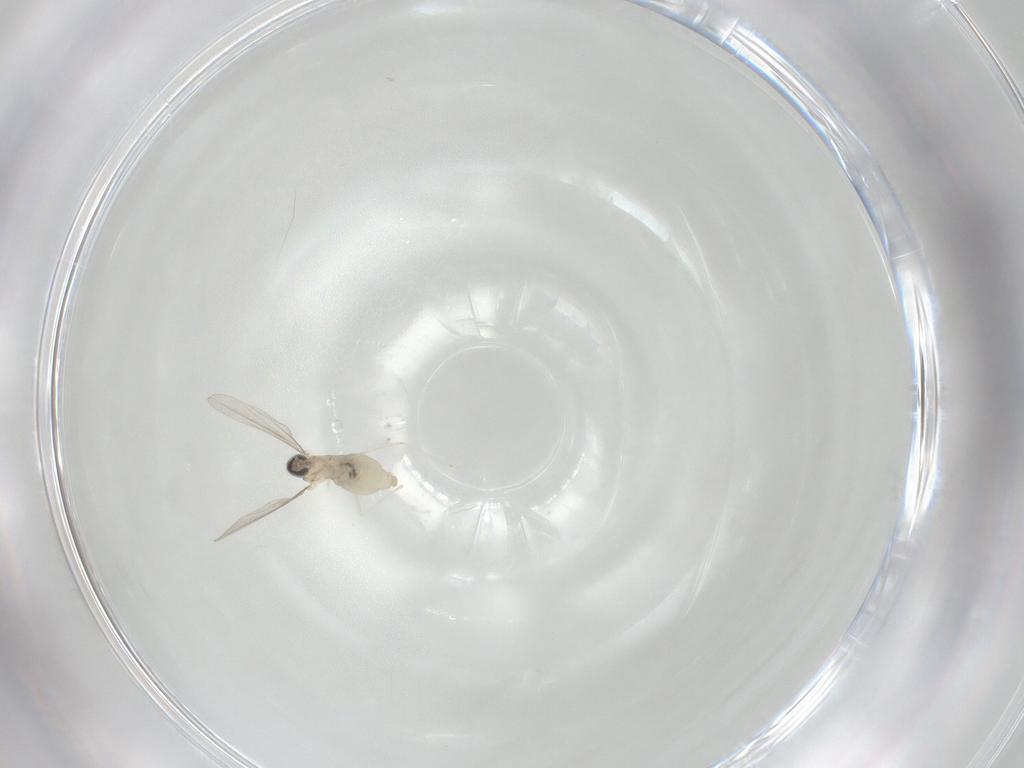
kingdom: Animalia
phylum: Arthropoda
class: Insecta
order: Diptera
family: Cecidomyiidae
